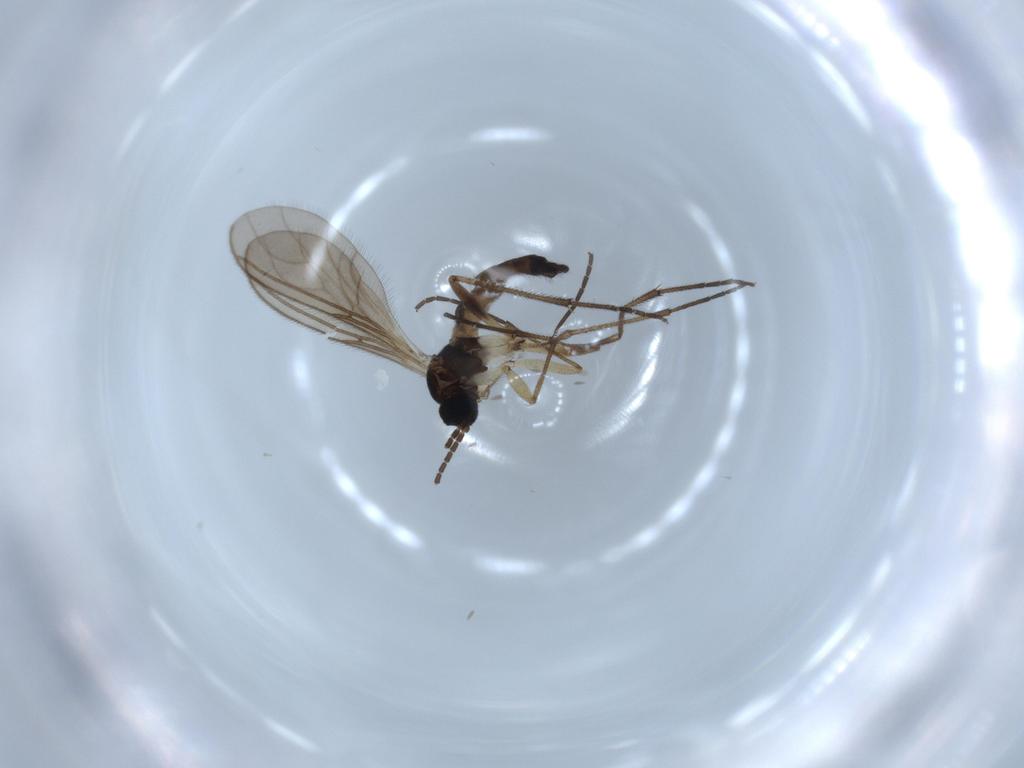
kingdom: Animalia
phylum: Arthropoda
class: Insecta
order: Diptera
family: Sciaridae
